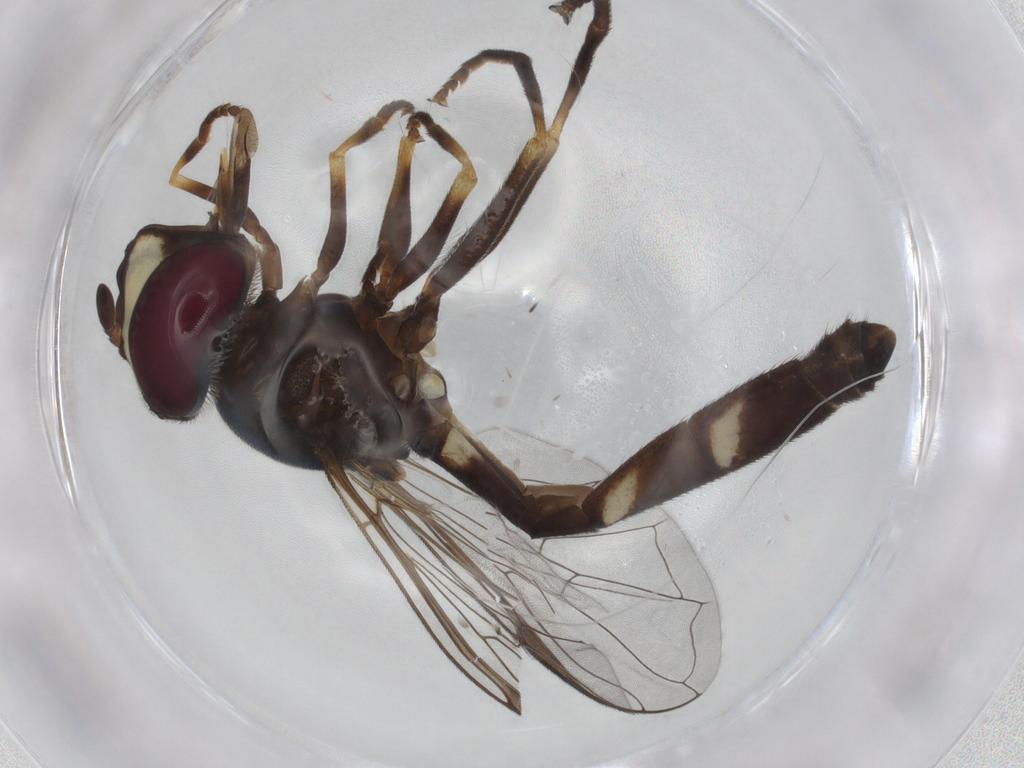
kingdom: Animalia
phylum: Arthropoda
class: Insecta
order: Diptera
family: Syrphidae
